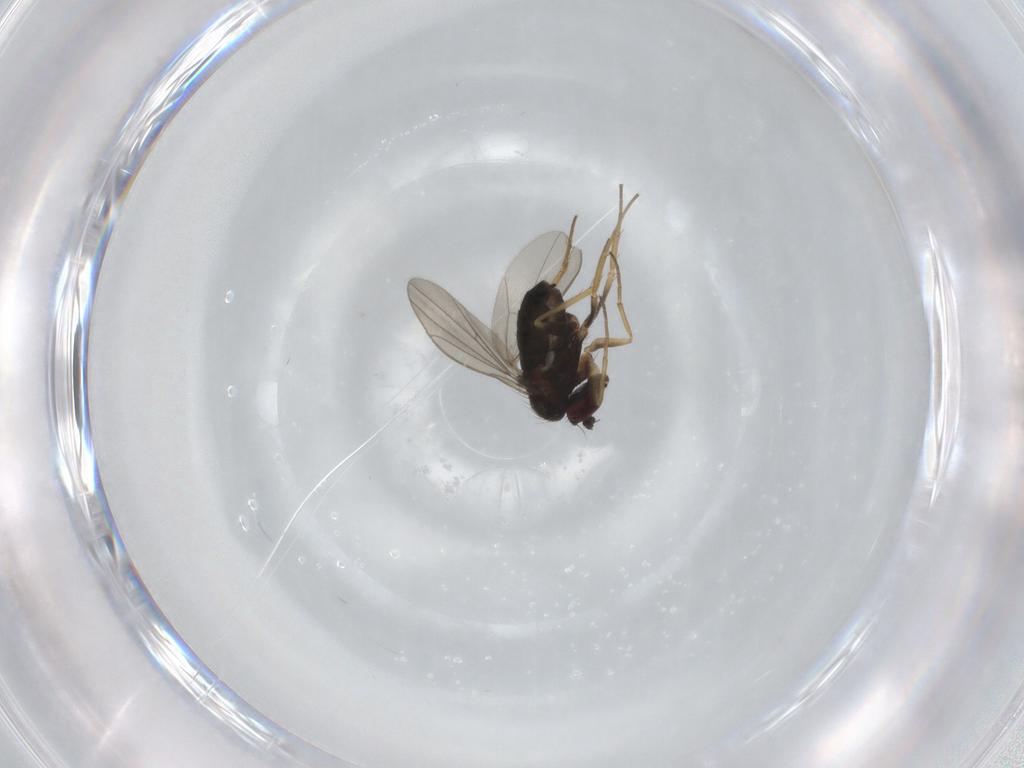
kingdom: Animalia
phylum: Arthropoda
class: Insecta
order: Diptera
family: Dolichopodidae
